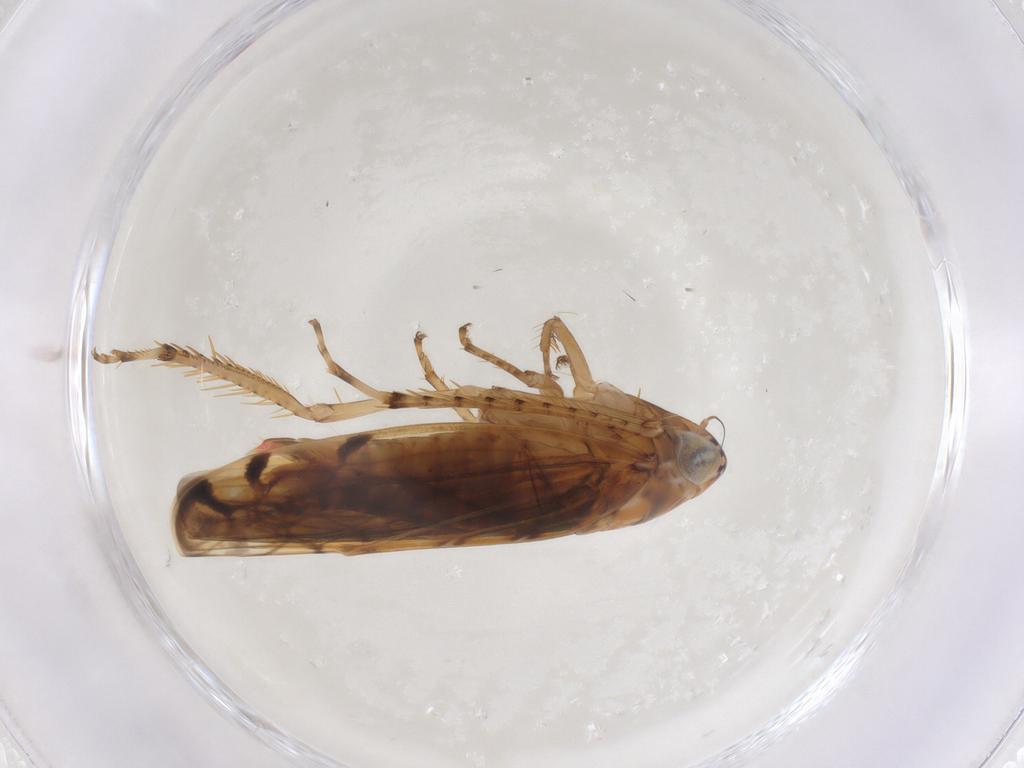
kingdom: Animalia
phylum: Arthropoda
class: Insecta
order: Hemiptera
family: Cicadellidae
